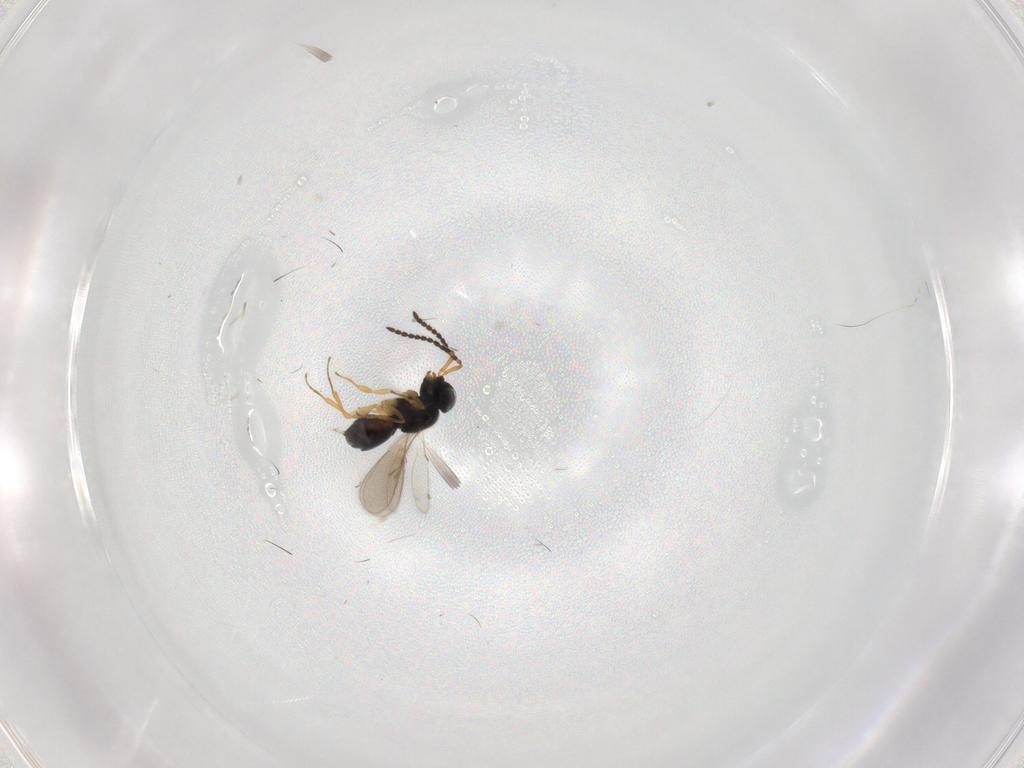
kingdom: Animalia
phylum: Arthropoda
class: Insecta
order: Hymenoptera
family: Scelionidae
